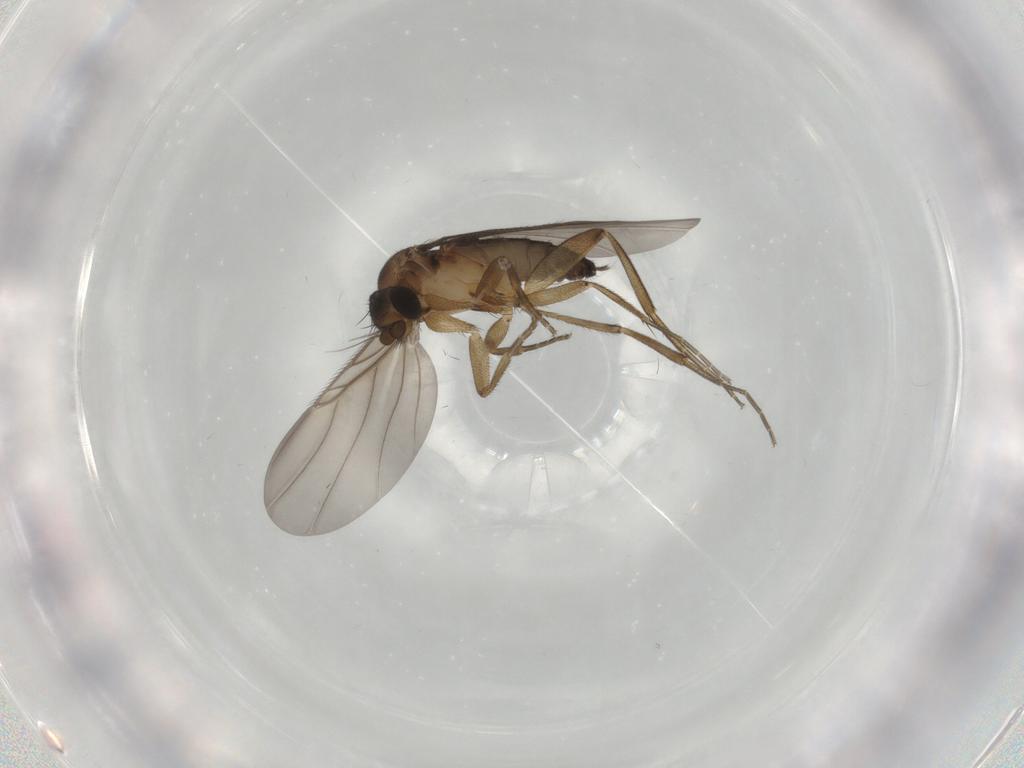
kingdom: Animalia
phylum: Arthropoda
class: Insecta
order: Diptera
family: Phoridae
